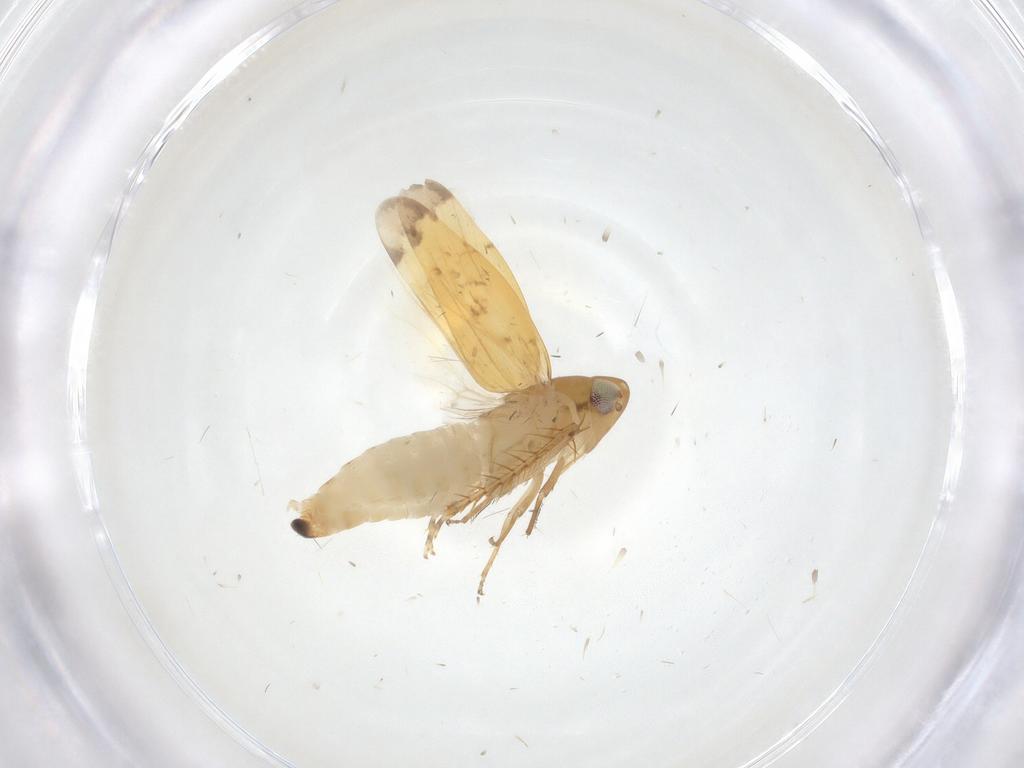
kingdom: Animalia
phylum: Arthropoda
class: Insecta
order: Hemiptera
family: Cicadellidae
